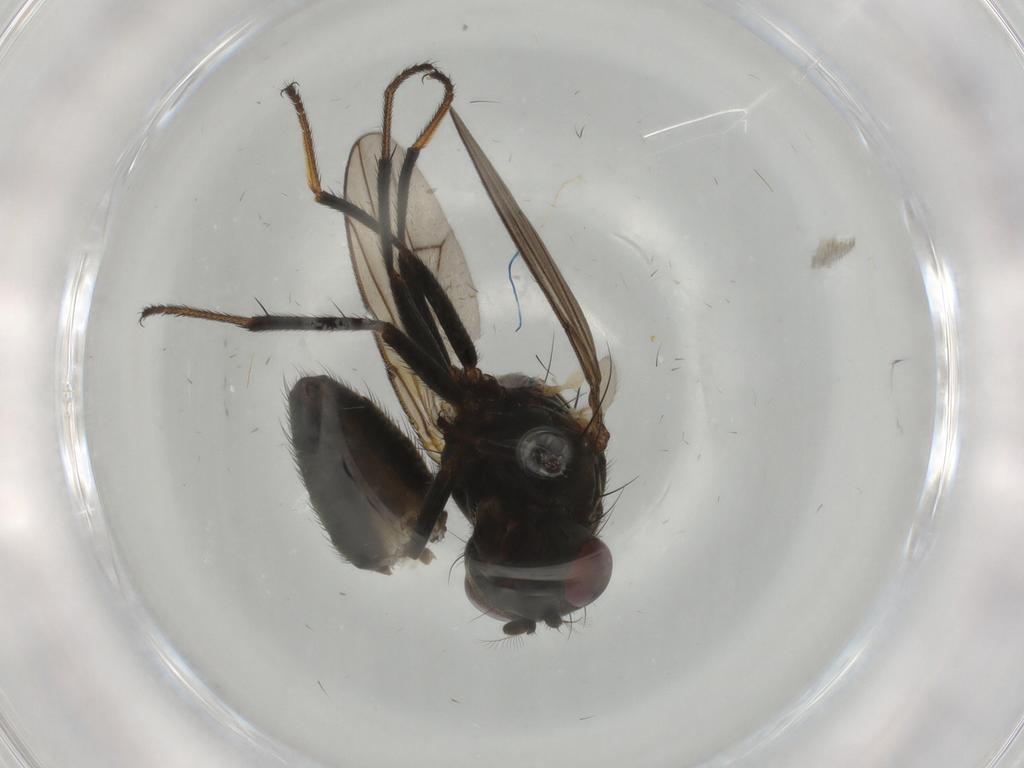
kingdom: Animalia
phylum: Arthropoda
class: Insecta
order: Diptera
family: Ephydridae
